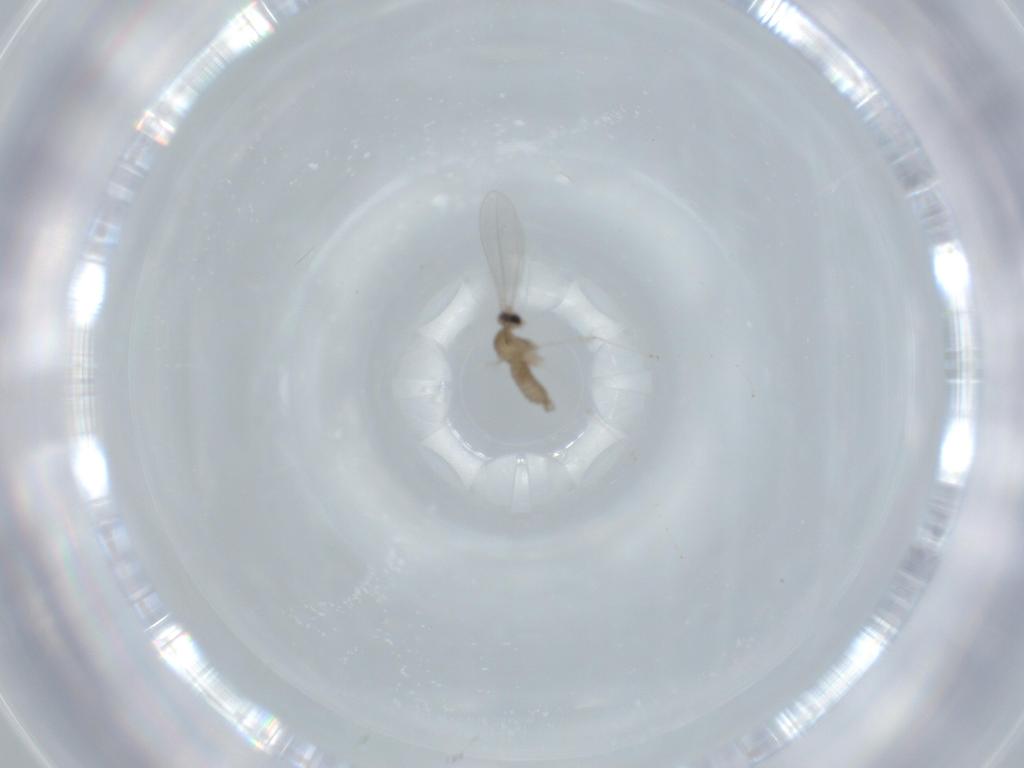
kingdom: Animalia
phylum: Arthropoda
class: Insecta
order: Diptera
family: Cecidomyiidae
